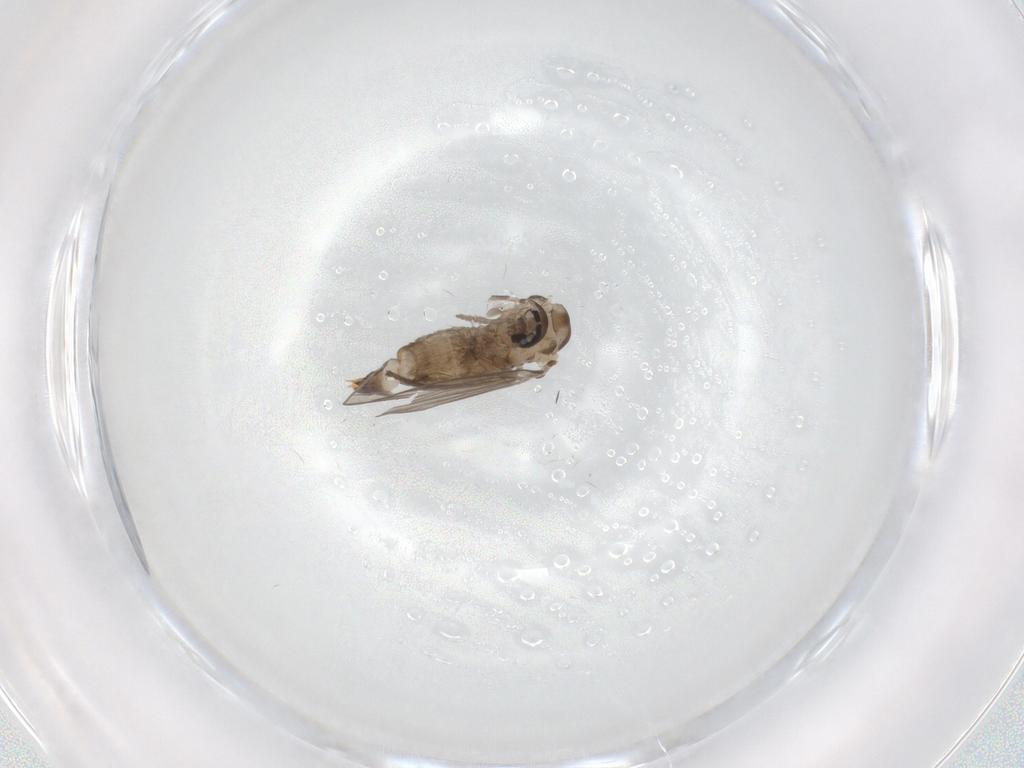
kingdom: Animalia
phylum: Arthropoda
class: Insecta
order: Diptera
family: Psychodidae
